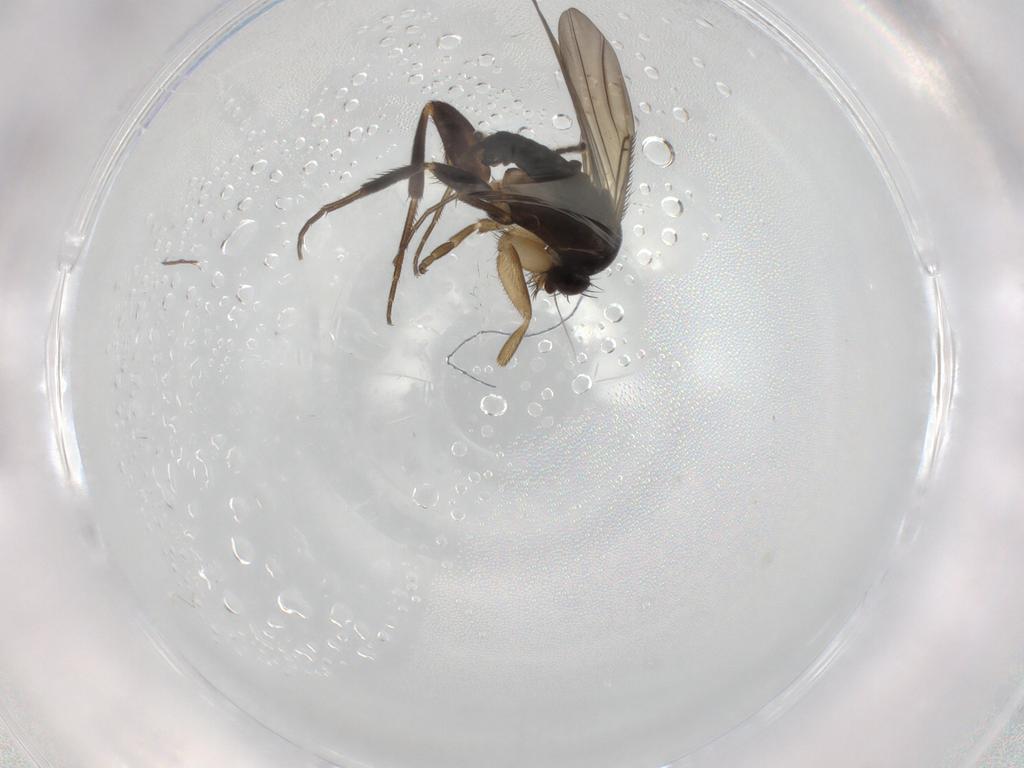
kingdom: Animalia
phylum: Arthropoda
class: Insecta
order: Diptera
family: Phoridae
